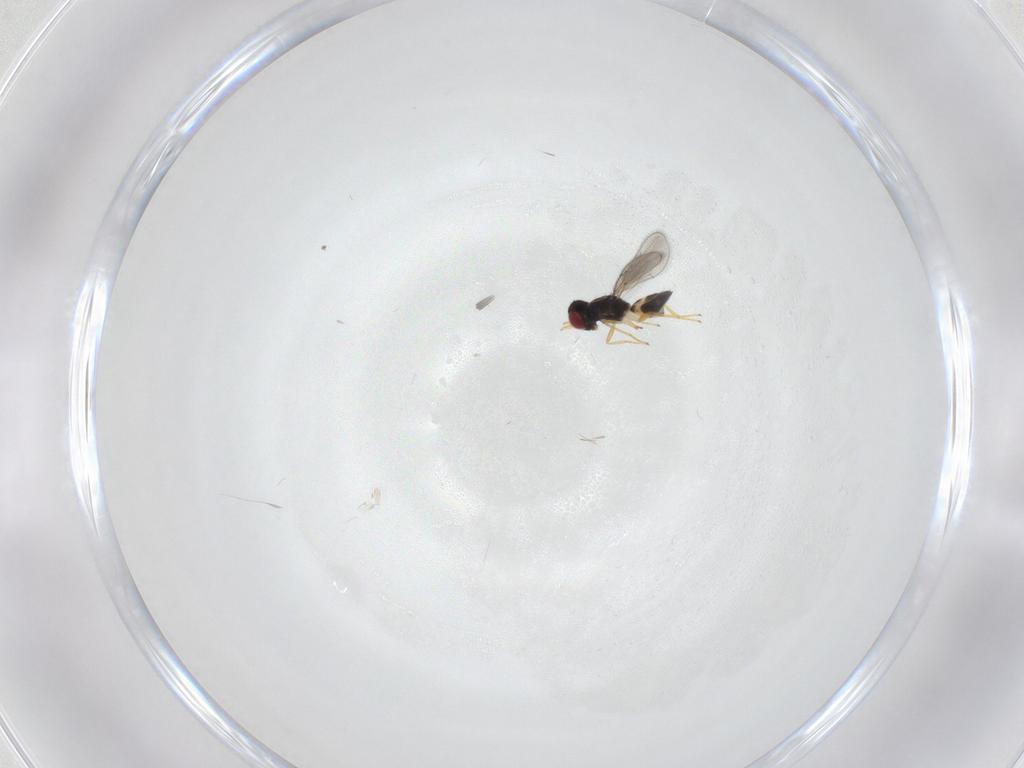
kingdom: Animalia
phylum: Arthropoda
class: Insecta
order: Hymenoptera
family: Eulophidae
